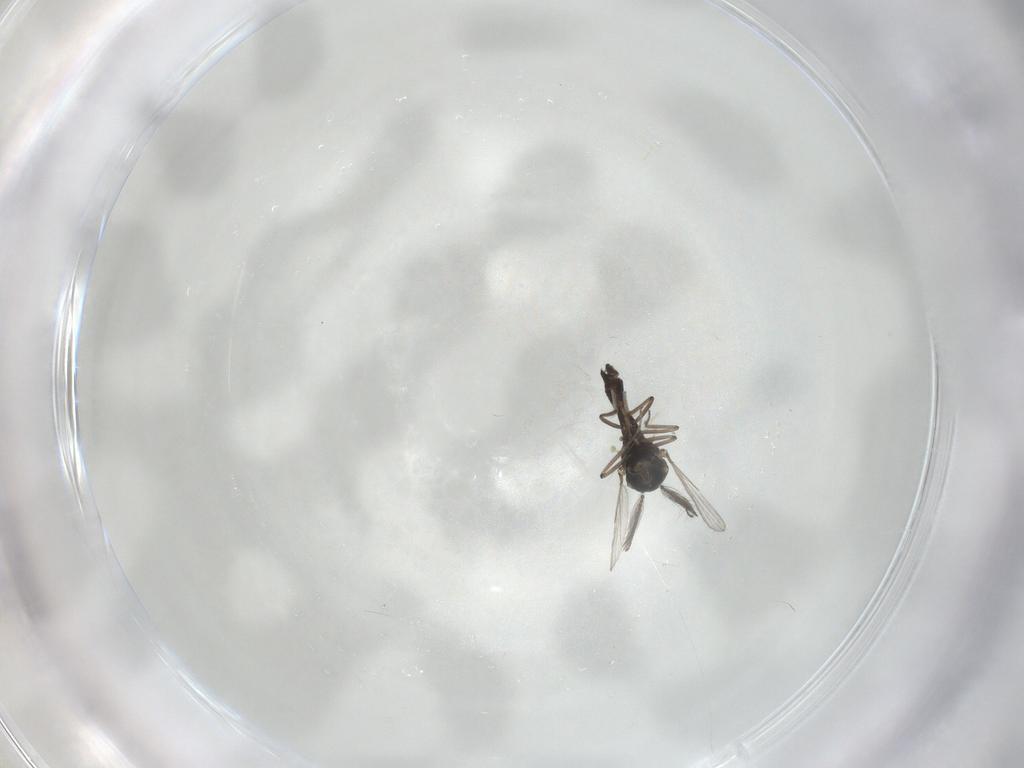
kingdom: Animalia
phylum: Arthropoda
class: Insecta
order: Diptera
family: Ceratopogonidae
